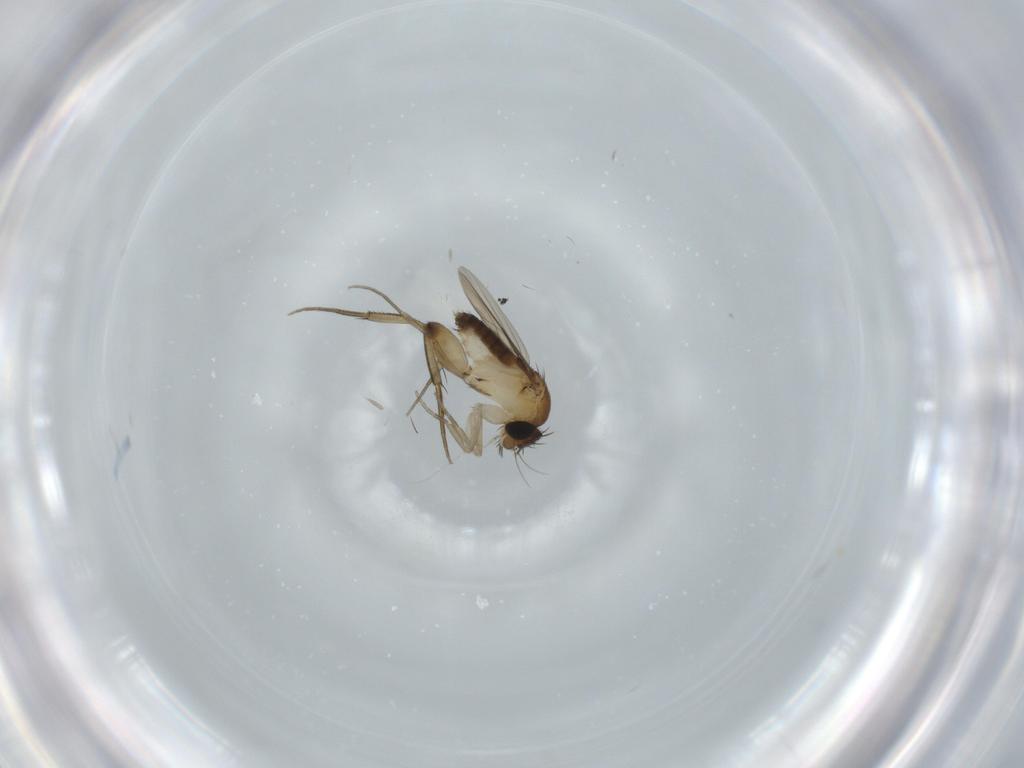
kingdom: Animalia
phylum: Arthropoda
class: Insecta
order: Diptera
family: Phoridae
